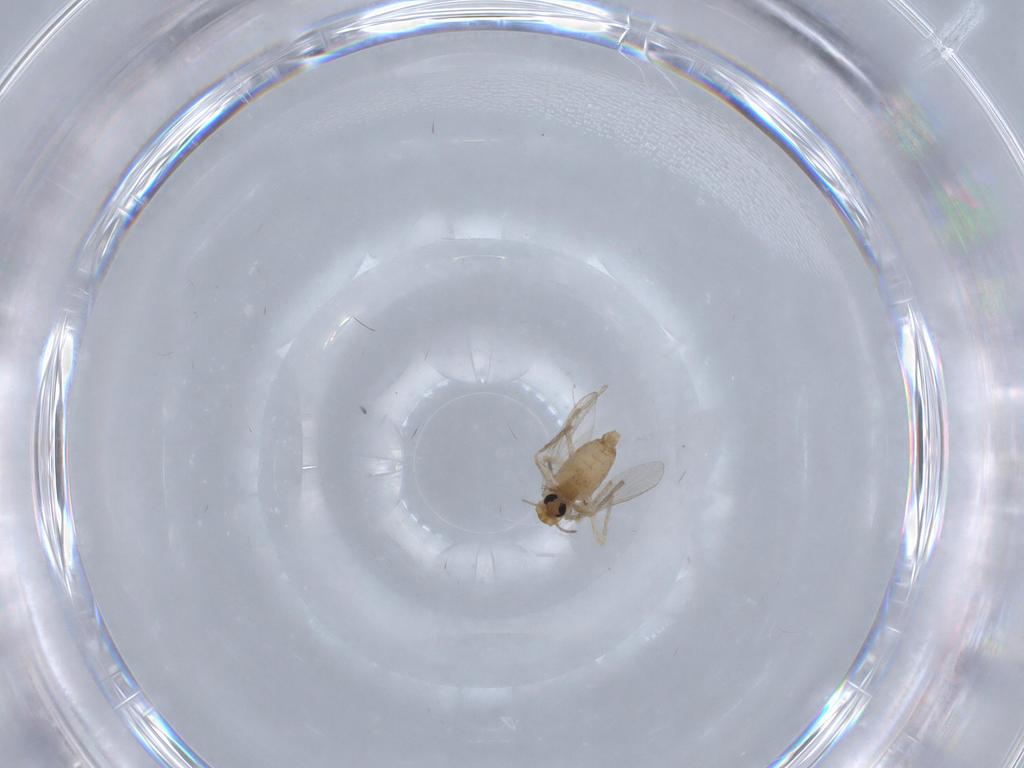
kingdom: Animalia
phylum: Arthropoda
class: Insecta
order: Diptera
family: Chironomidae
